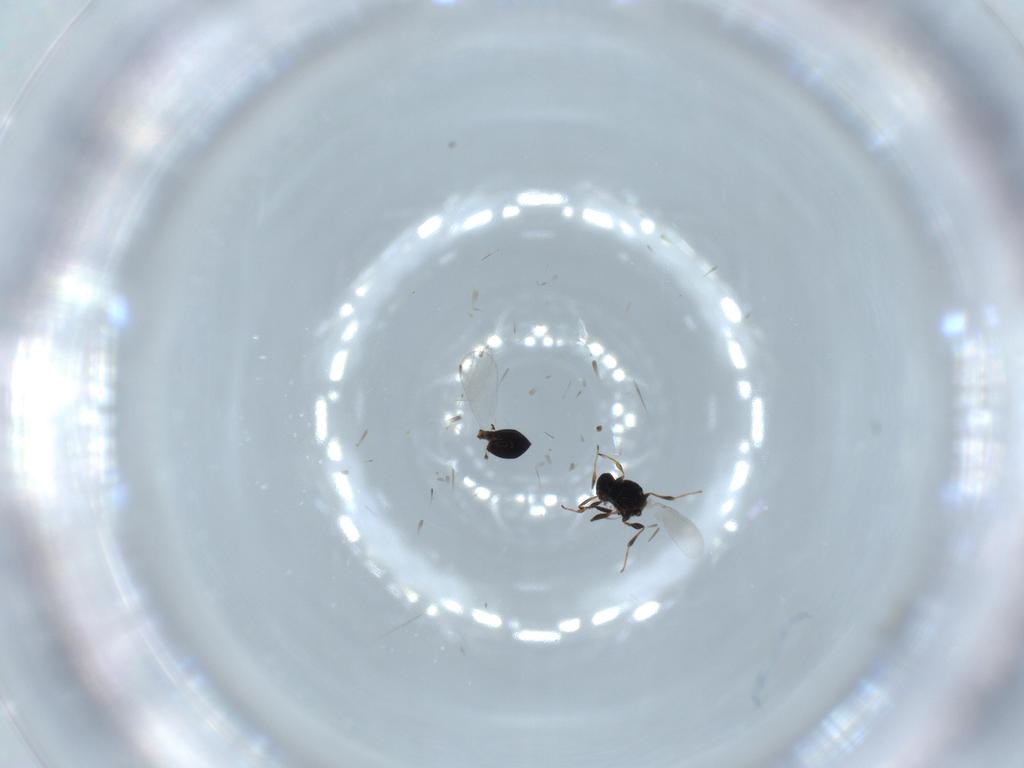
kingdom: Animalia
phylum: Arthropoda
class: Insecta
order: Hymenoptera
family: Platygastridae
